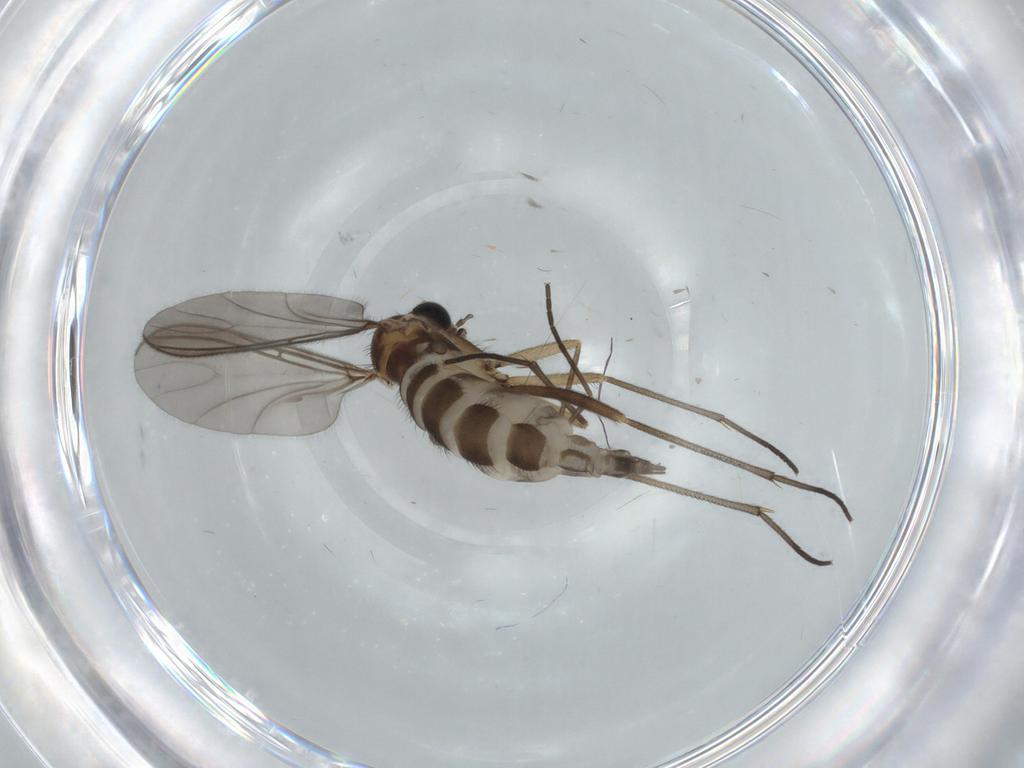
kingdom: Animalia
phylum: Arthropoda
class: Insecta
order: Diptera
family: Sciaridae
